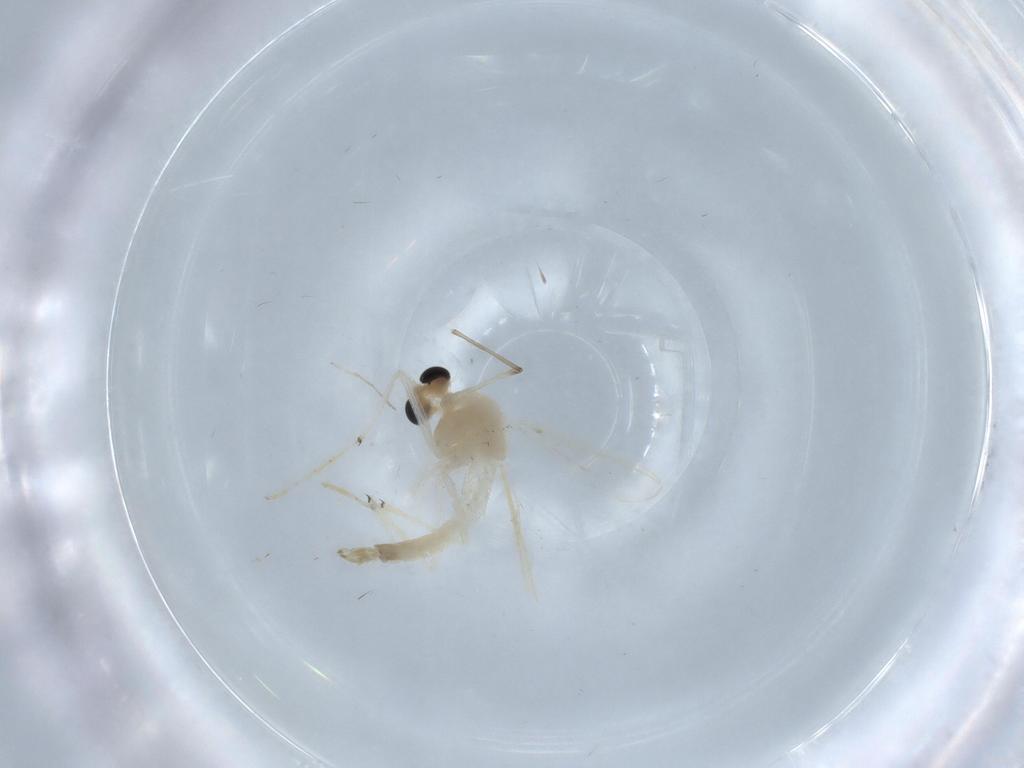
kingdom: Animalia
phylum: Arthropoda
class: Insecta
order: Diptera
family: Chironomidae
